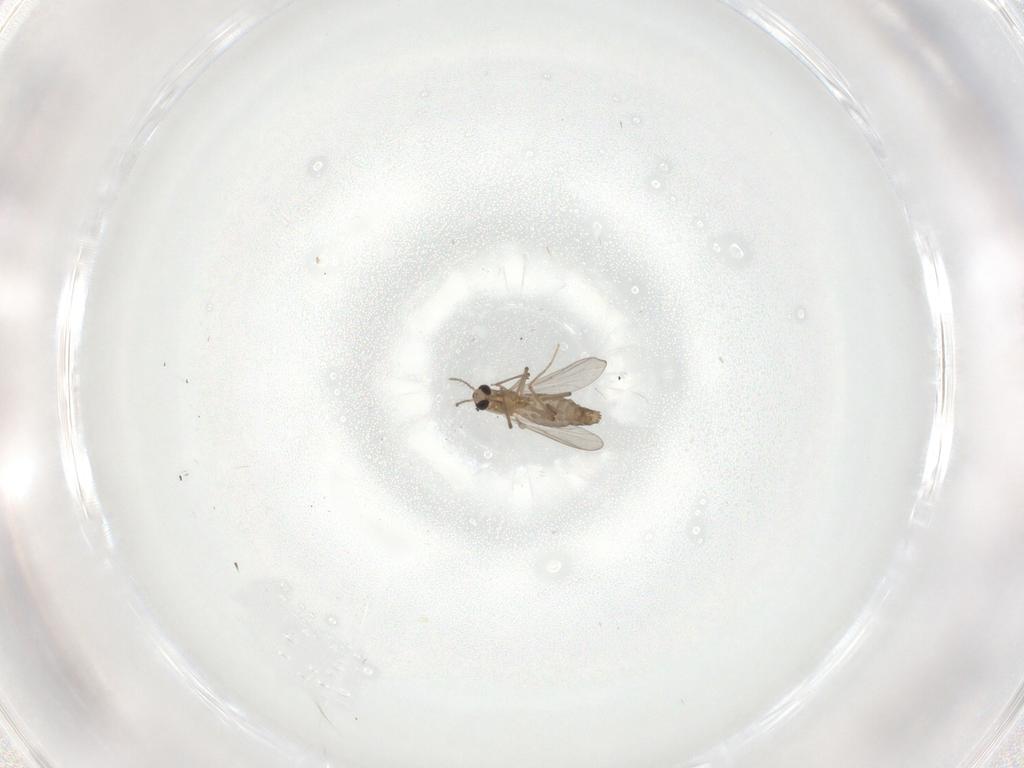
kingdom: Animalia
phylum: Arthropoda
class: Insecta
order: Diptera
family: Chironomidae
